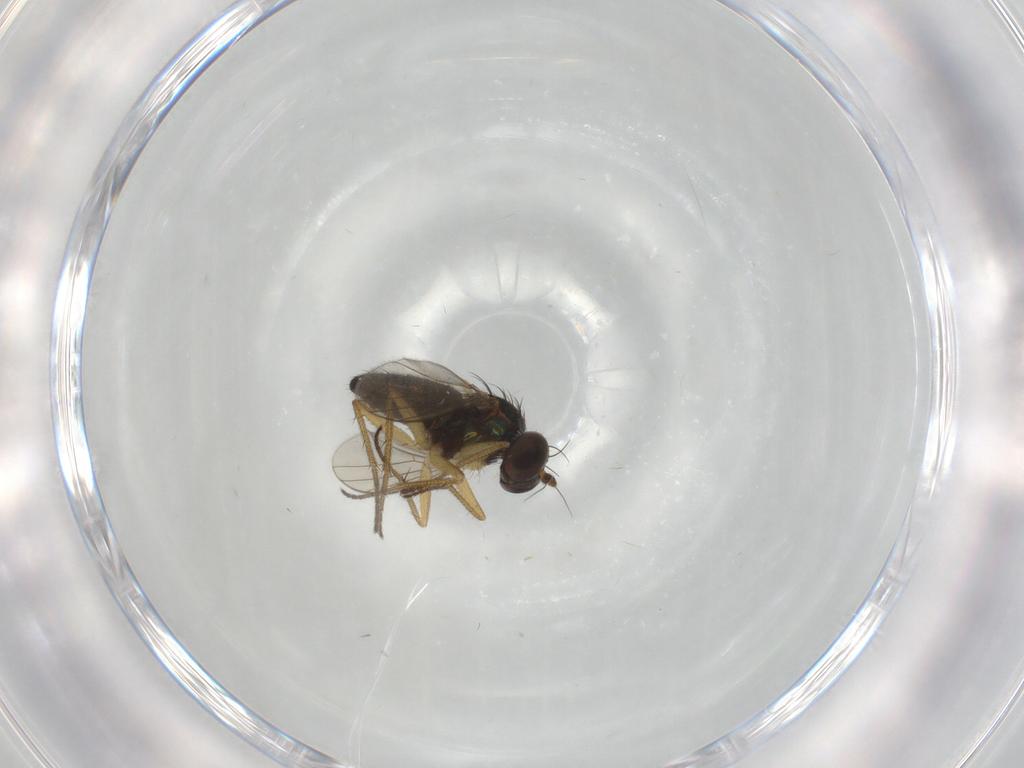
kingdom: Animalia
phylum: Arthropoda
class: Insecta
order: Diptera
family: Dolichopodidae
